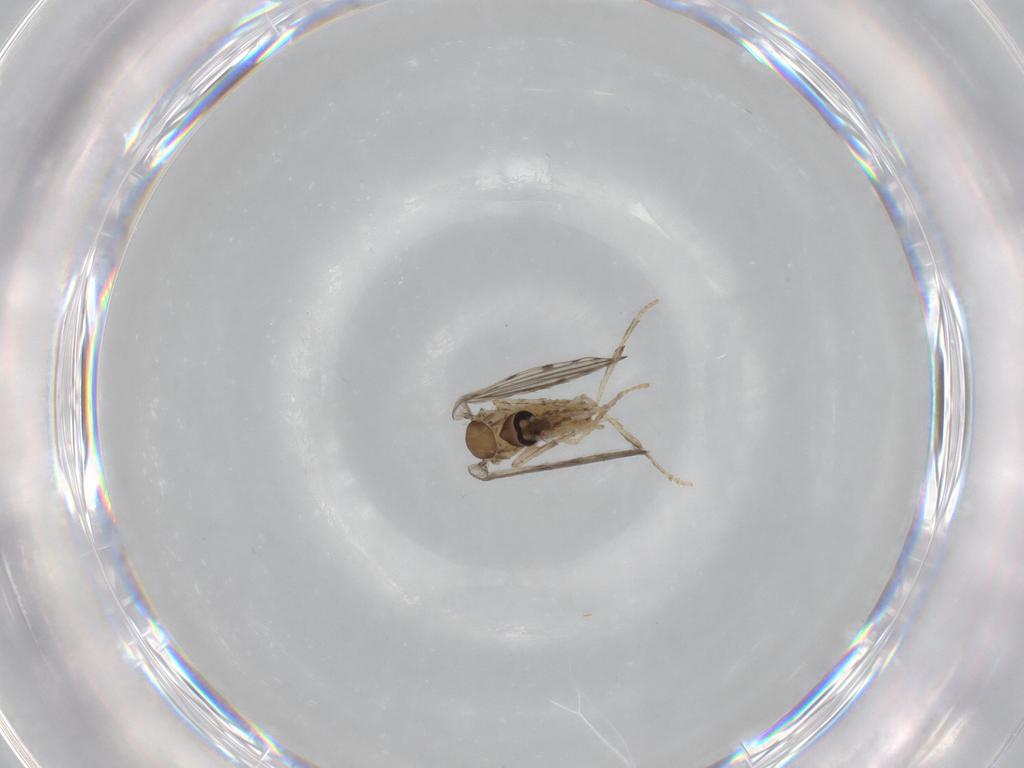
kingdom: Animalia
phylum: Arthropoda
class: Insecta
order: Diptera
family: Psychodidae
